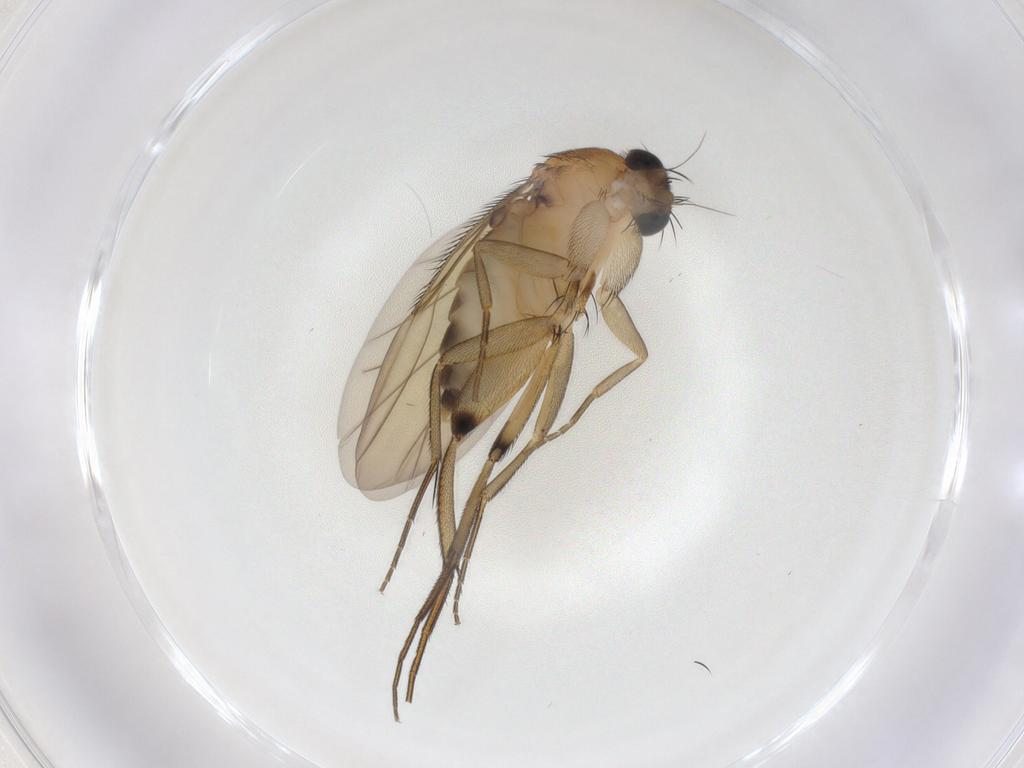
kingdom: Animalia
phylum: Arthropoda
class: Insecta
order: Diptera
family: Phoridae
